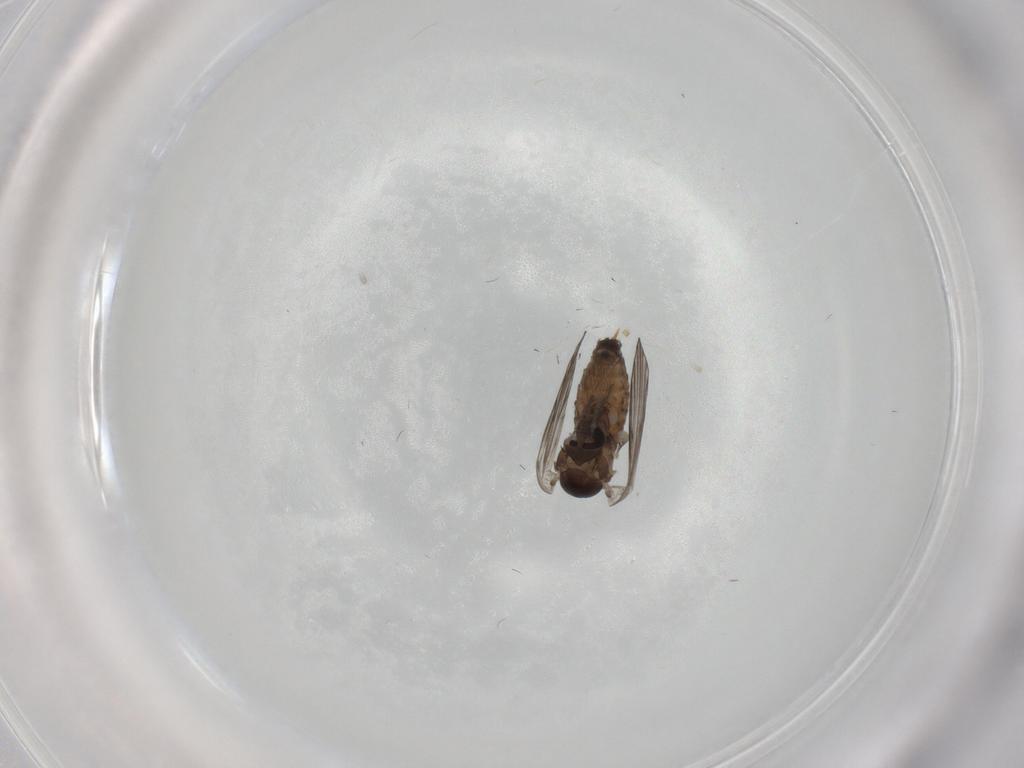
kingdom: Animalia
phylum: Arthropoda
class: Insecta
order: Diptera
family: Psychodidae
